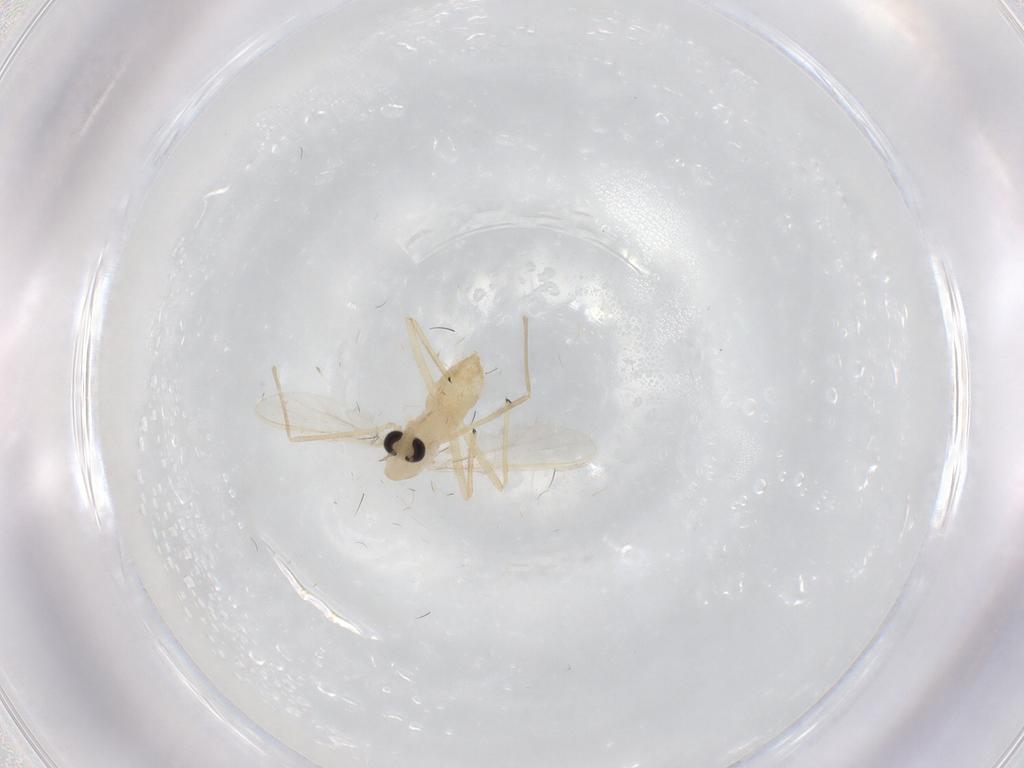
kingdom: Animalia
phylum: Arthropoda
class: Insecta
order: Diptera
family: Chironomidae
